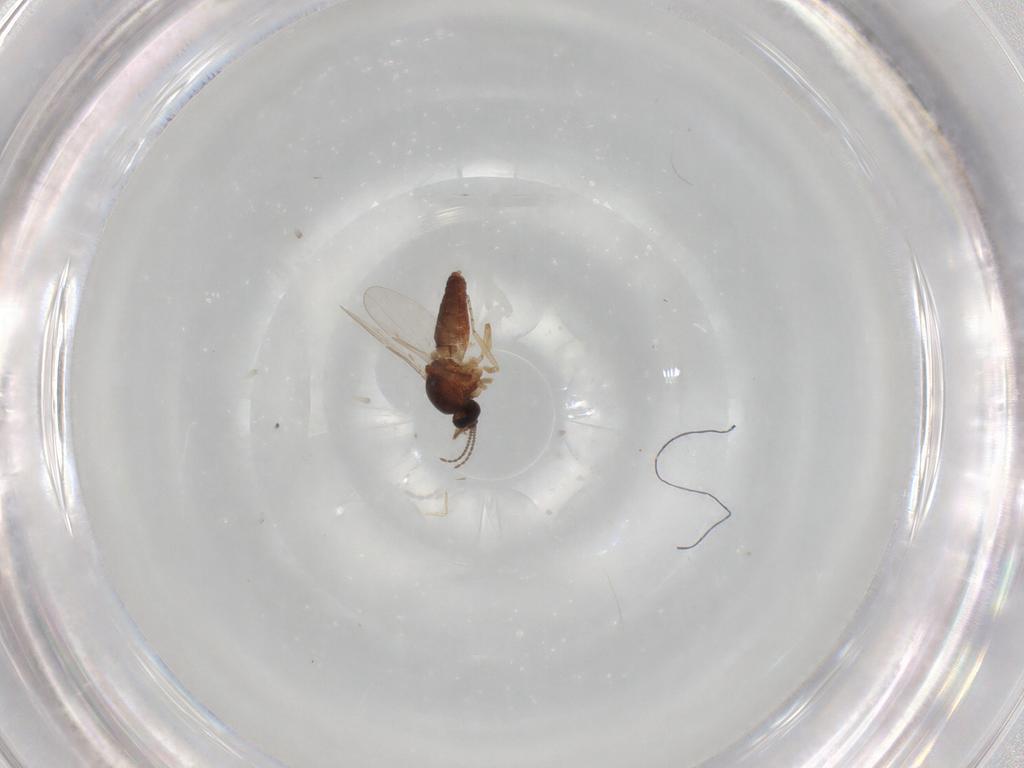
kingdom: Animalia
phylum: Arthropoda
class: Insecta
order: Diptera
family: Ceratopogonidae
